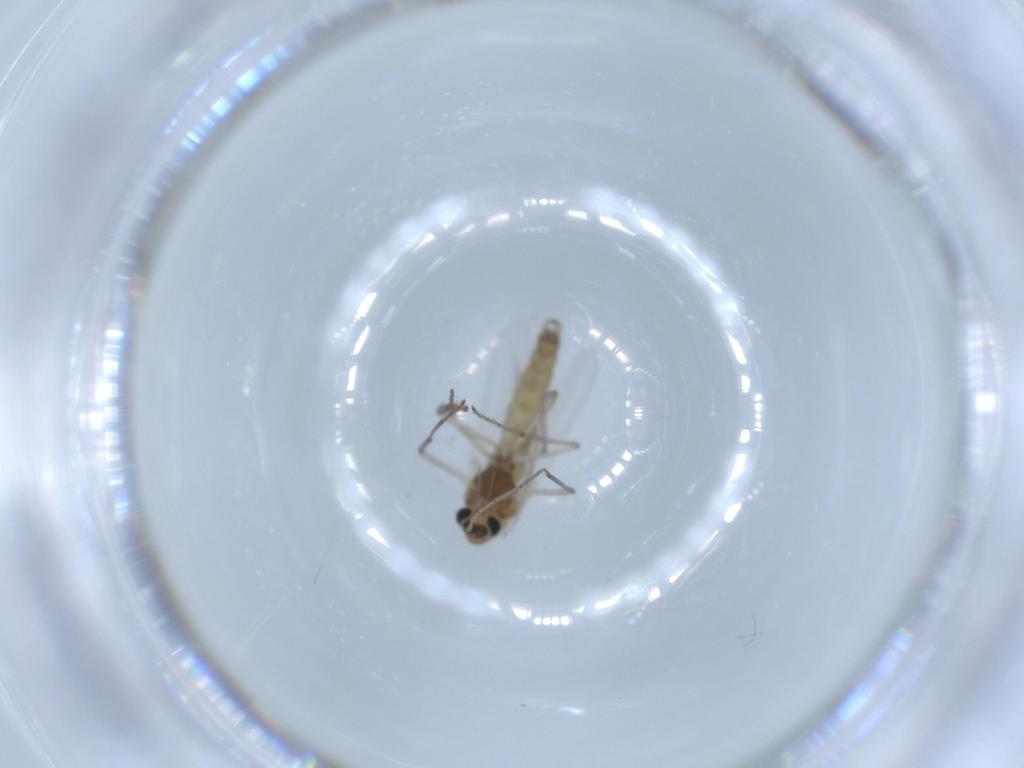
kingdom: Animalia
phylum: Arthropoda
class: Insecta
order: Diptera
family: Chironomidae
